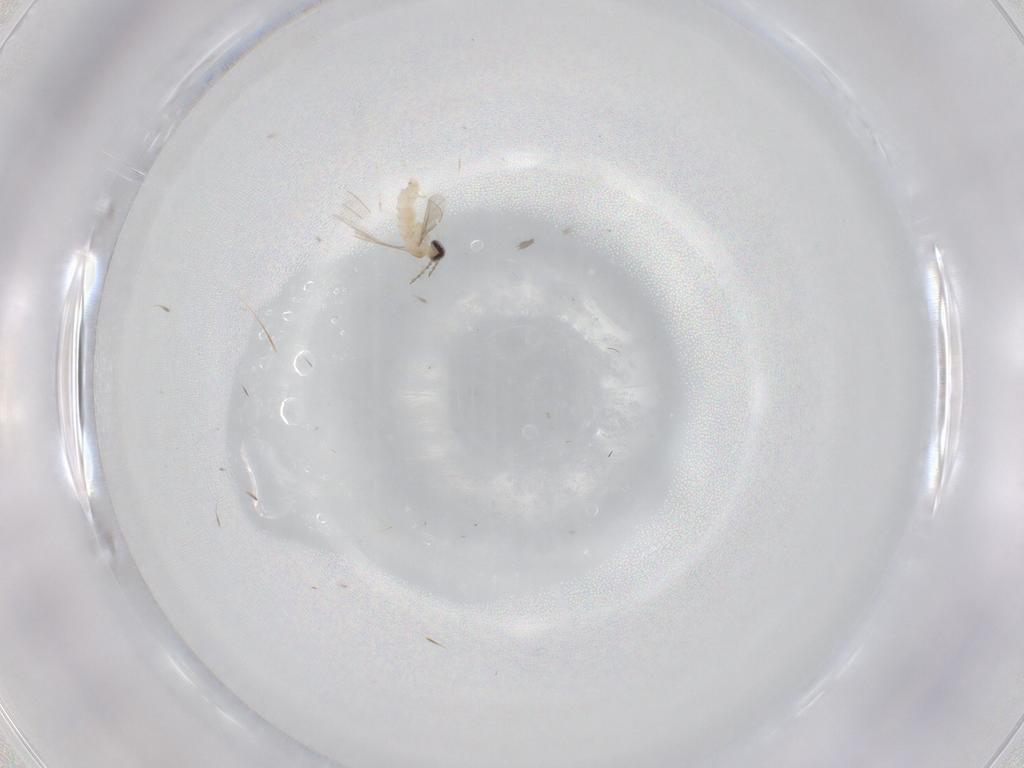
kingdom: Animalia
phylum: Arthropoda
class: Insecta
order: Diptera
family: Cecidomyiidae
